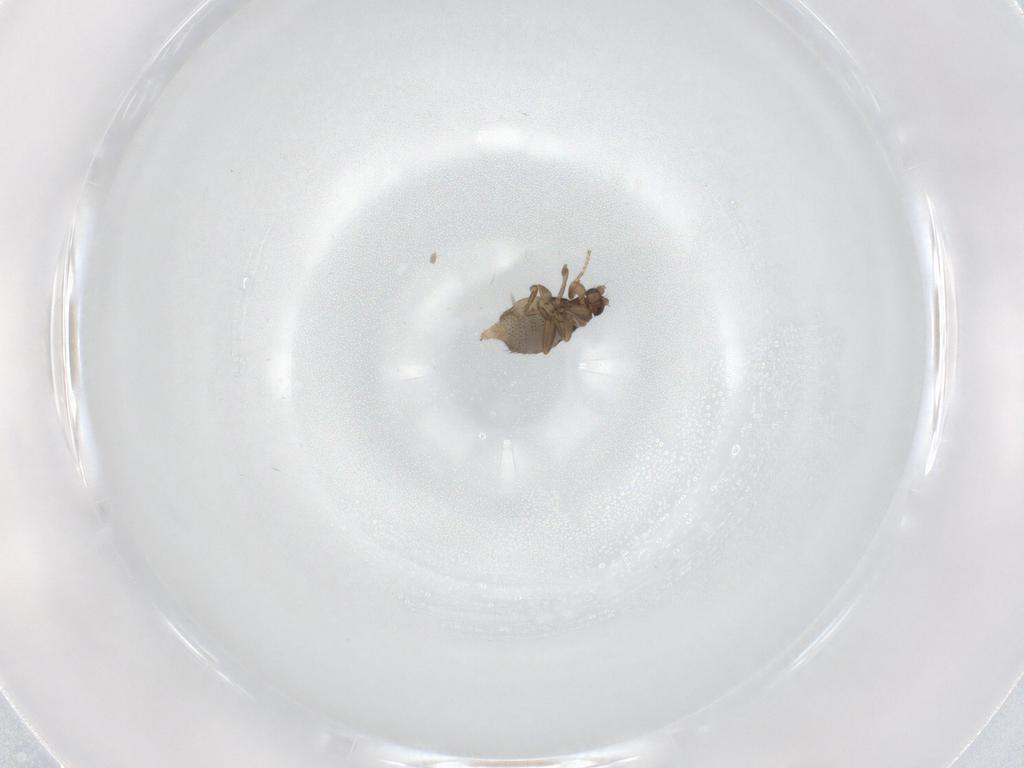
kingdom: Animalia
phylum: Arthropoda
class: Insecta
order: Diptera
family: Phoridae
